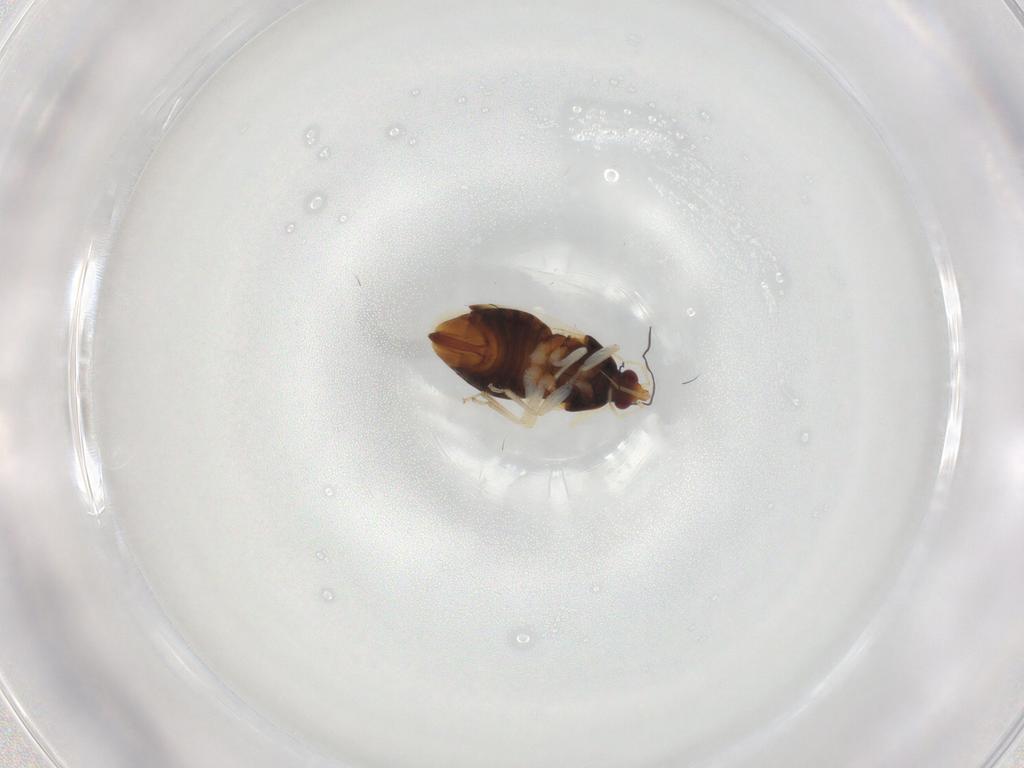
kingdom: Animalia
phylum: Arthropoda
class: Insecta
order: Hemiptera
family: Anthocoridae
